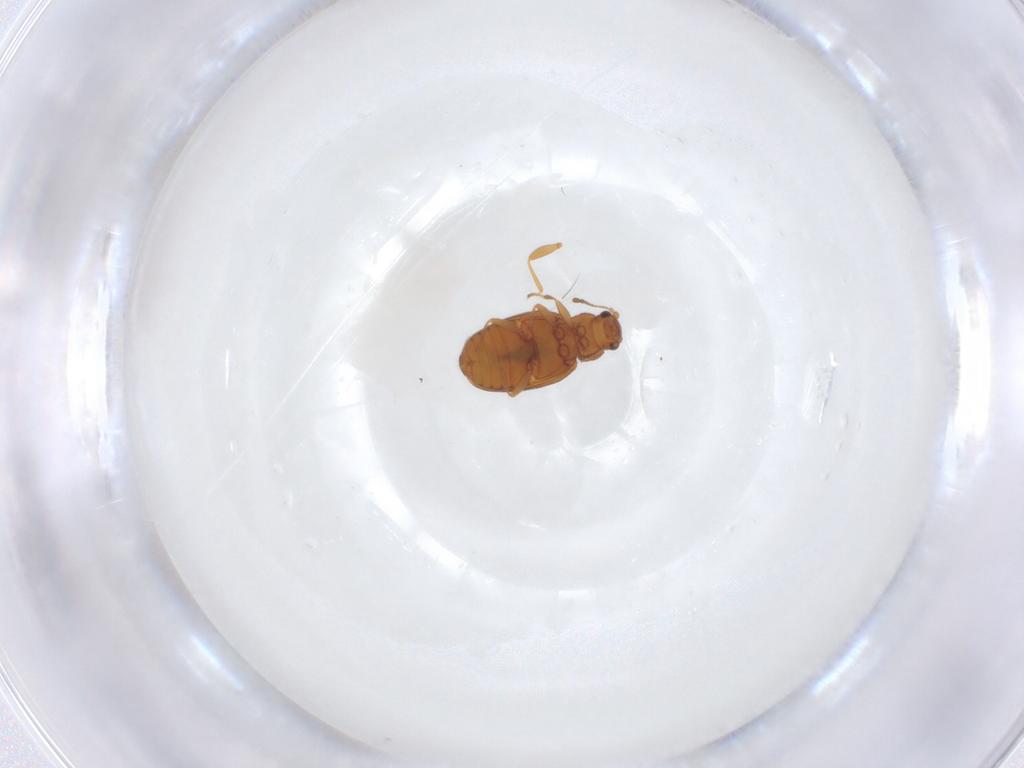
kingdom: Animalia
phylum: Arthropoda
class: Insecta
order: Coleoptera
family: Latridiidae
